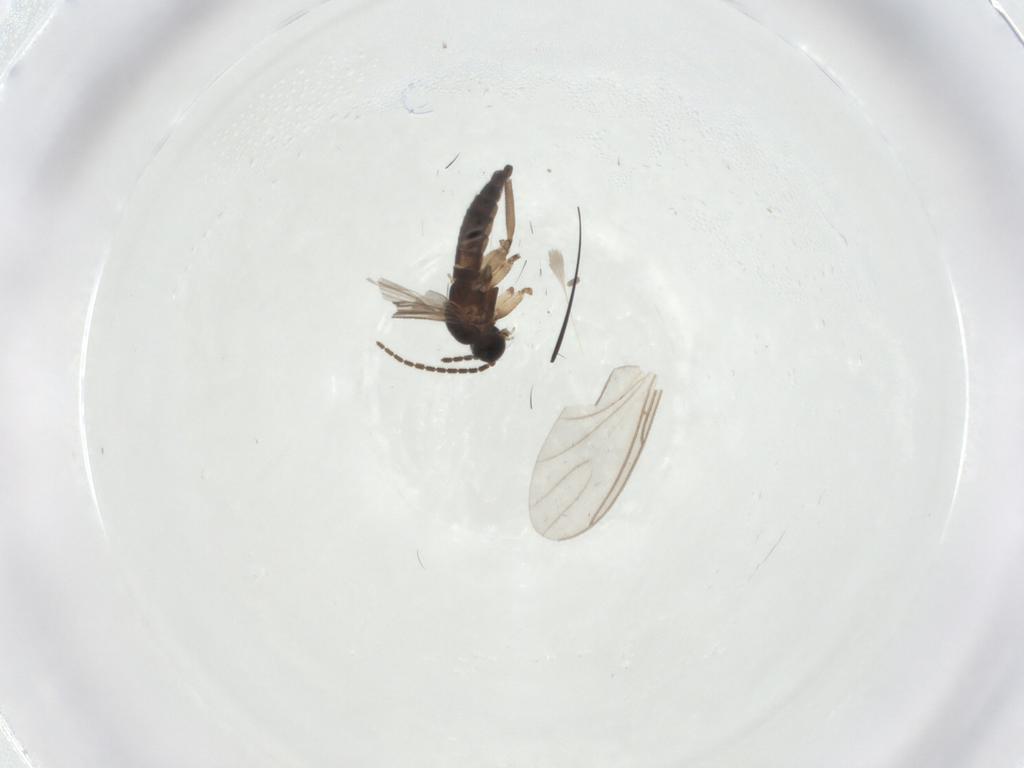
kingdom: Animalia
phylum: Arthropoda
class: Insecta
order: Diptera
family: Sciaridae
